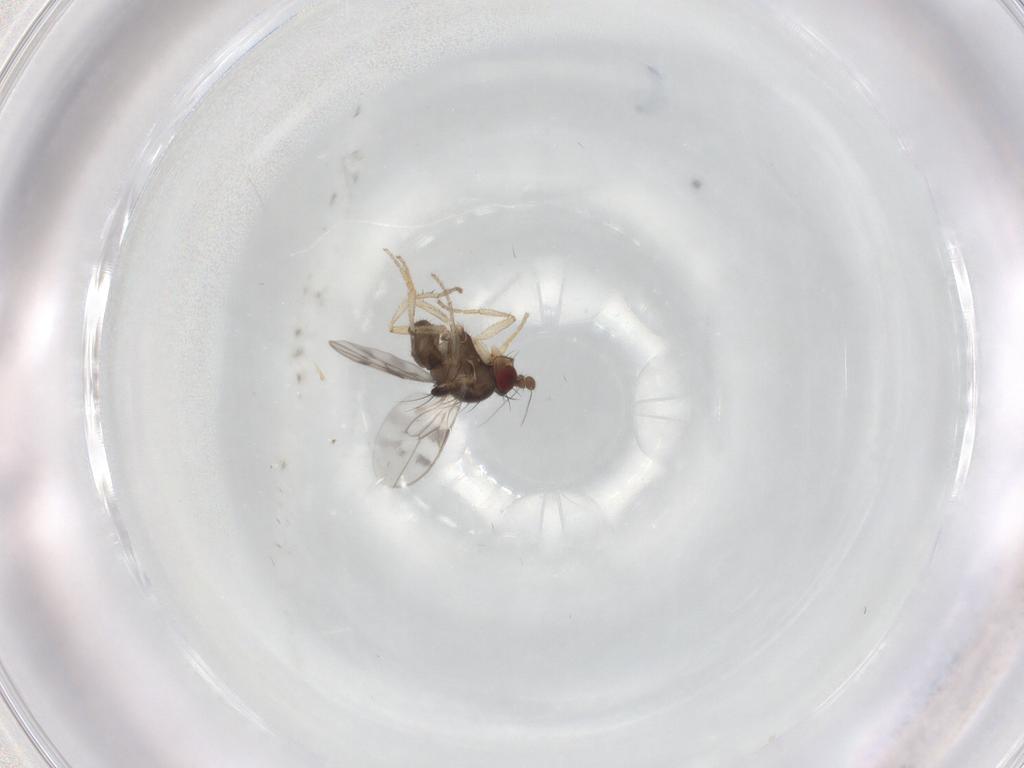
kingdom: Animalia
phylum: Arthropoda
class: Insecta
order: Diptera
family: Sphaeroceridae
